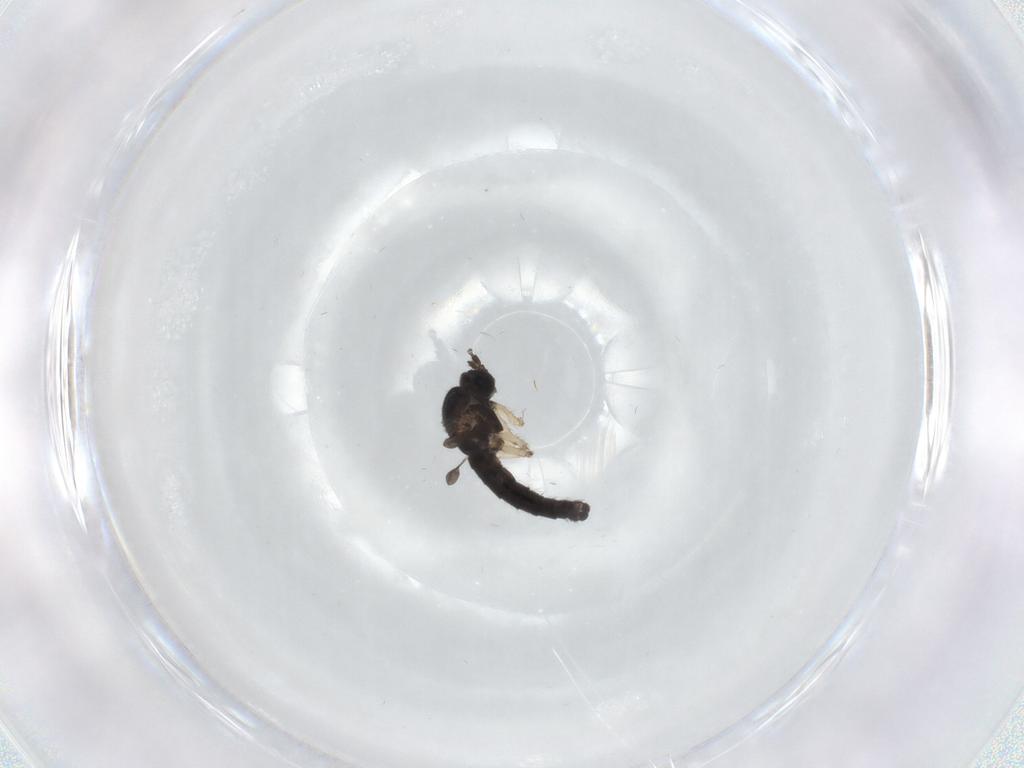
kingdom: Animalia
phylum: Arthropoda
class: Insecta
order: Diptera
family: Sciaridae
